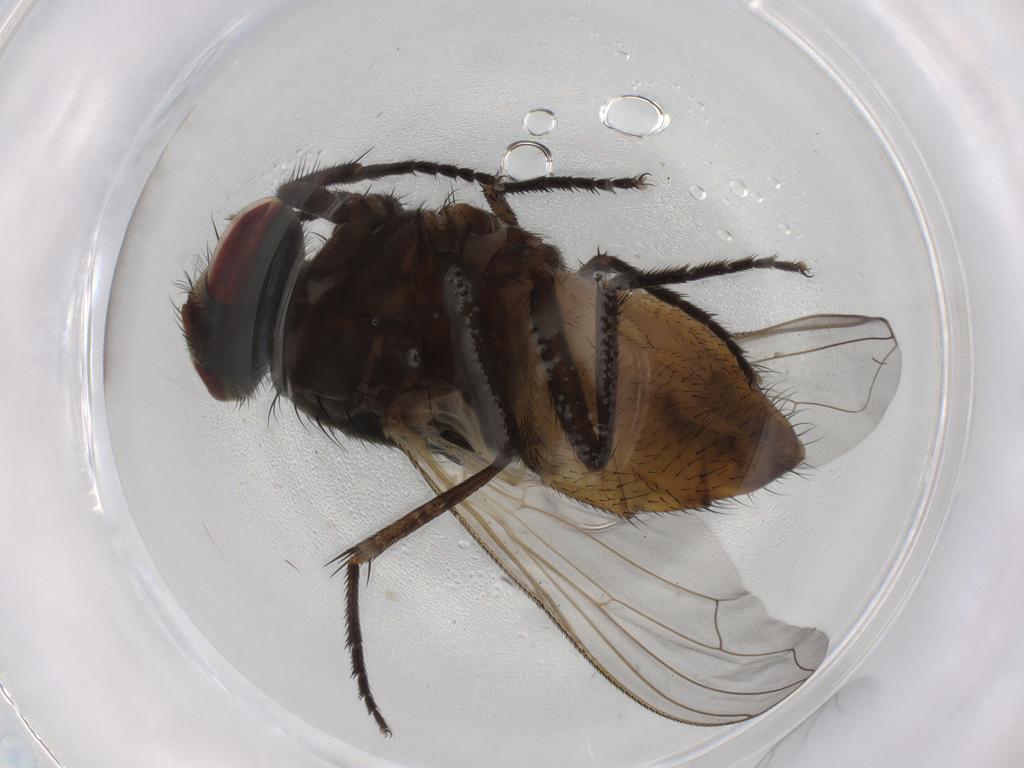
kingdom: Animalia
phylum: Arthropoda
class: Insecta
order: Diptera
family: Muscidae
